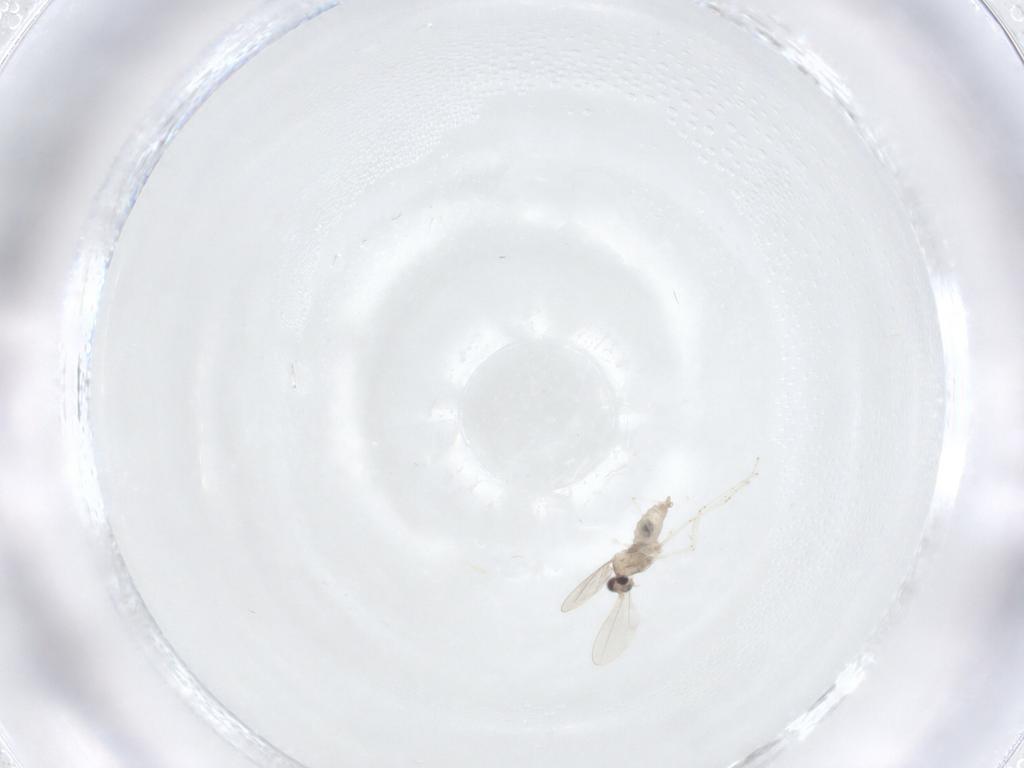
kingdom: Animalia
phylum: Arthropoda
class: Insecta
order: Diptera
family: Cecidomyiidae
